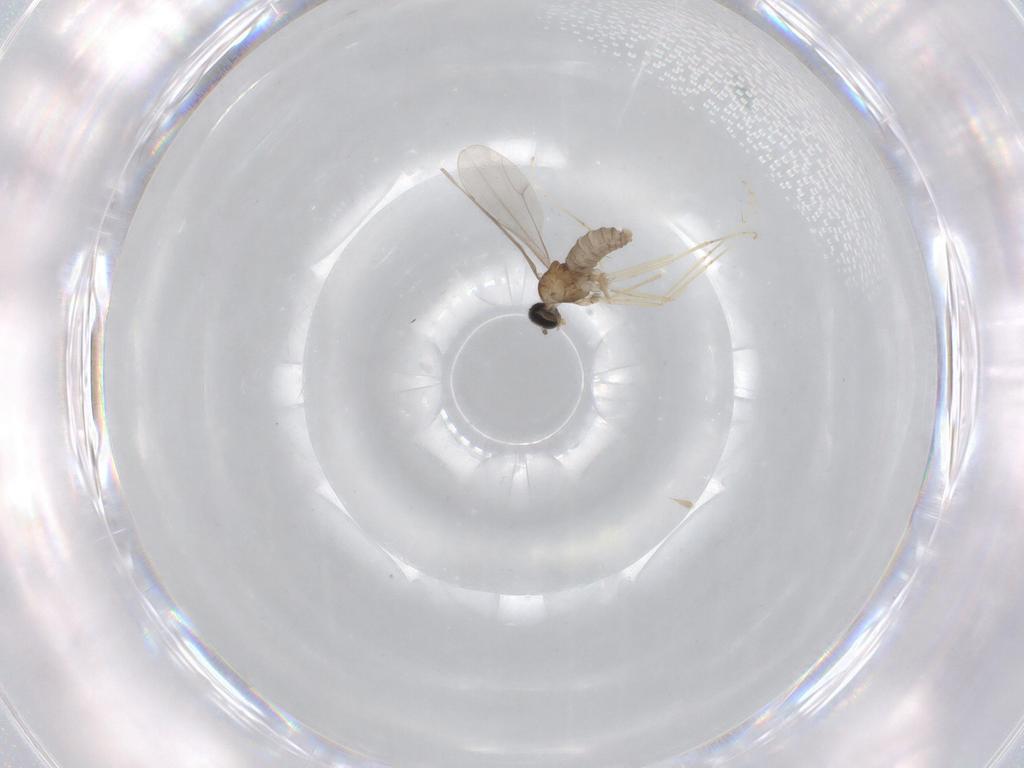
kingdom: Animalia
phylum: Arthropoda
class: Insecta
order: Diptera
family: Cecidomyiidae
